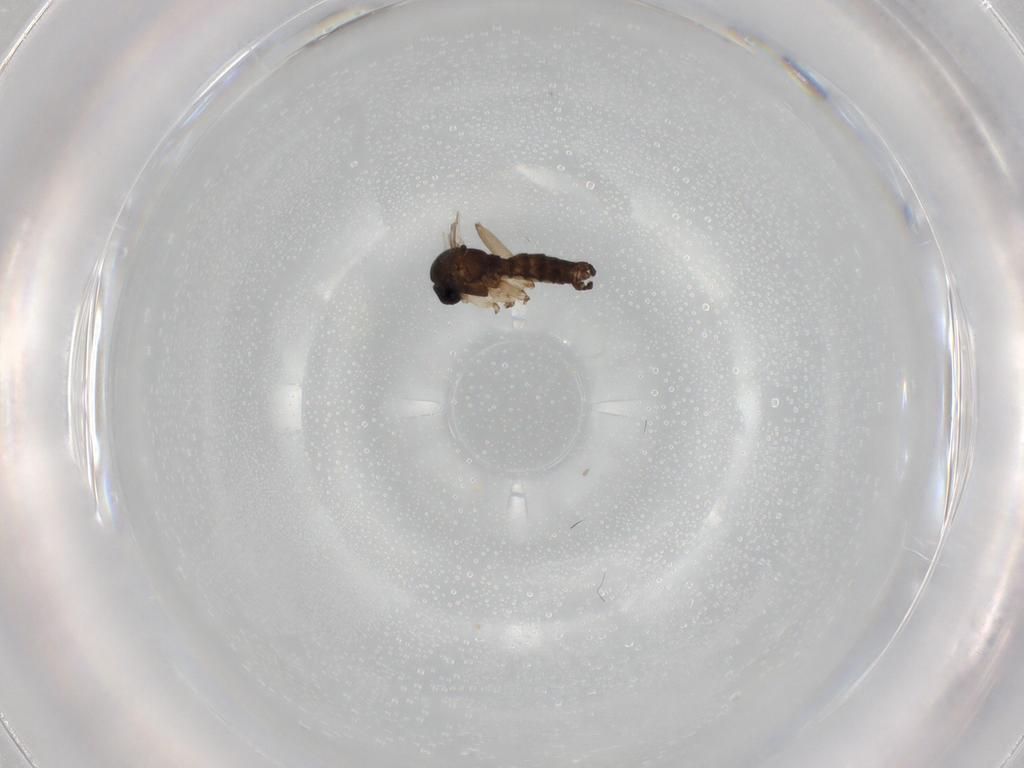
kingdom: Animalia
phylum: Arthropoda
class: Insecta
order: Diptera
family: Sciaridae
